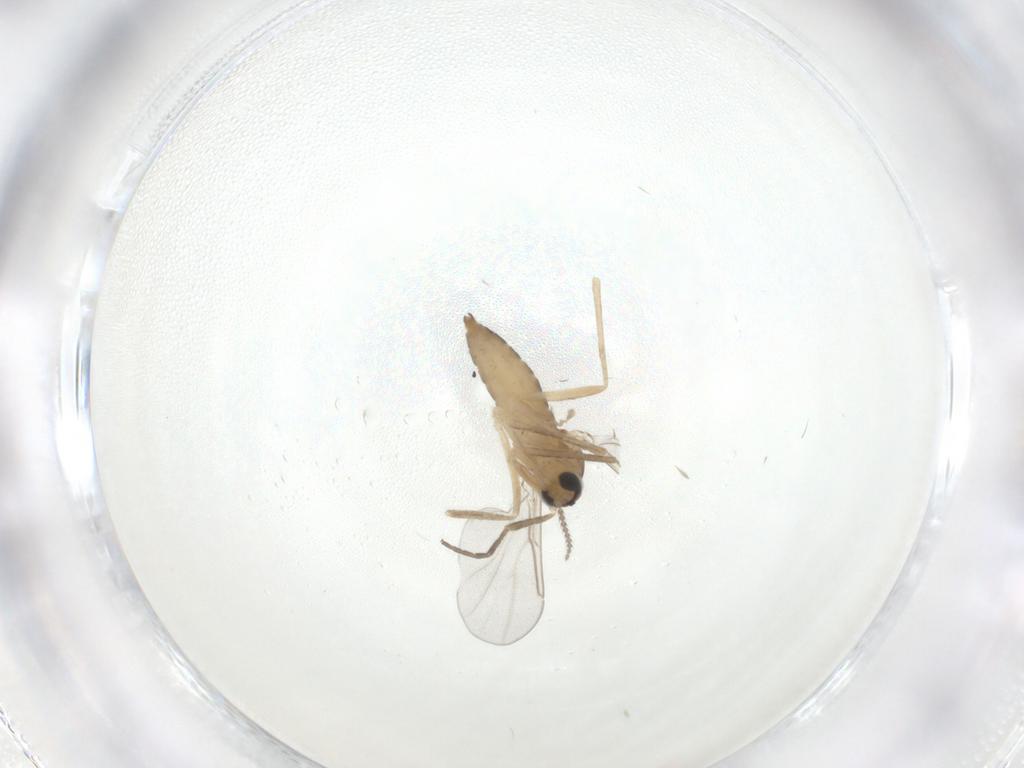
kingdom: Animalia
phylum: Arthropoda
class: Insecta
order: Diptera
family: Cecidomyiidae
